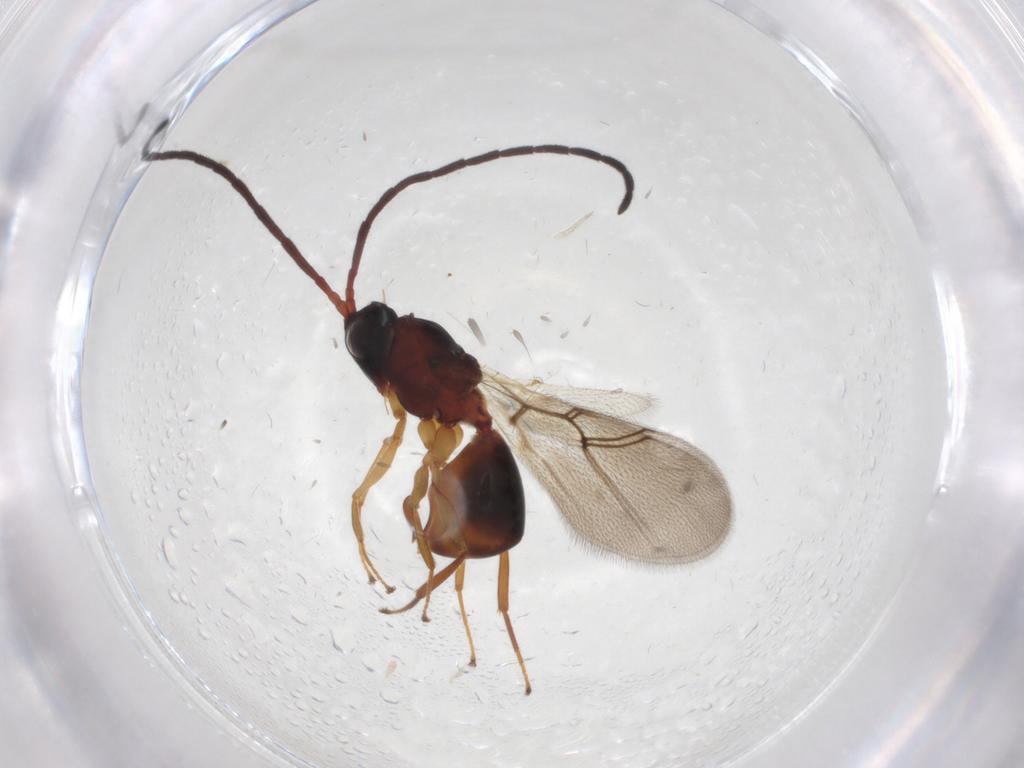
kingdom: Animalia
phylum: Arthropoda
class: Insecta
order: Hymenoptera
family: Figitidae
